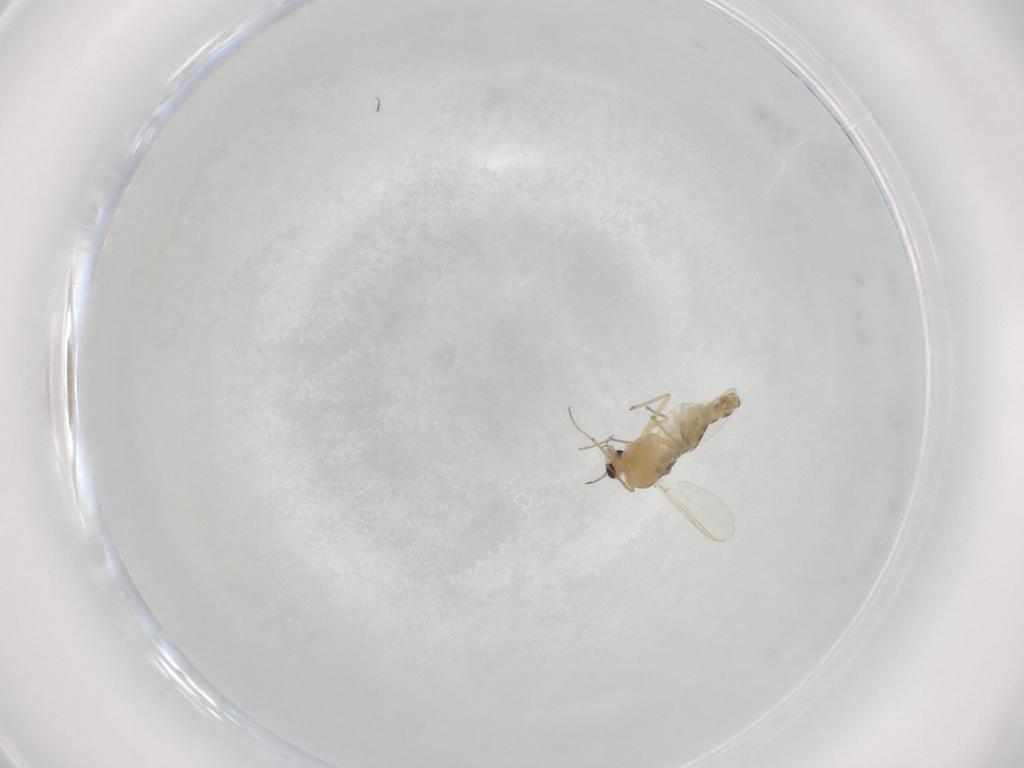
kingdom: Animalia
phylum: Arthropoda
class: Insecta
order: Diptera
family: Chironomidae
